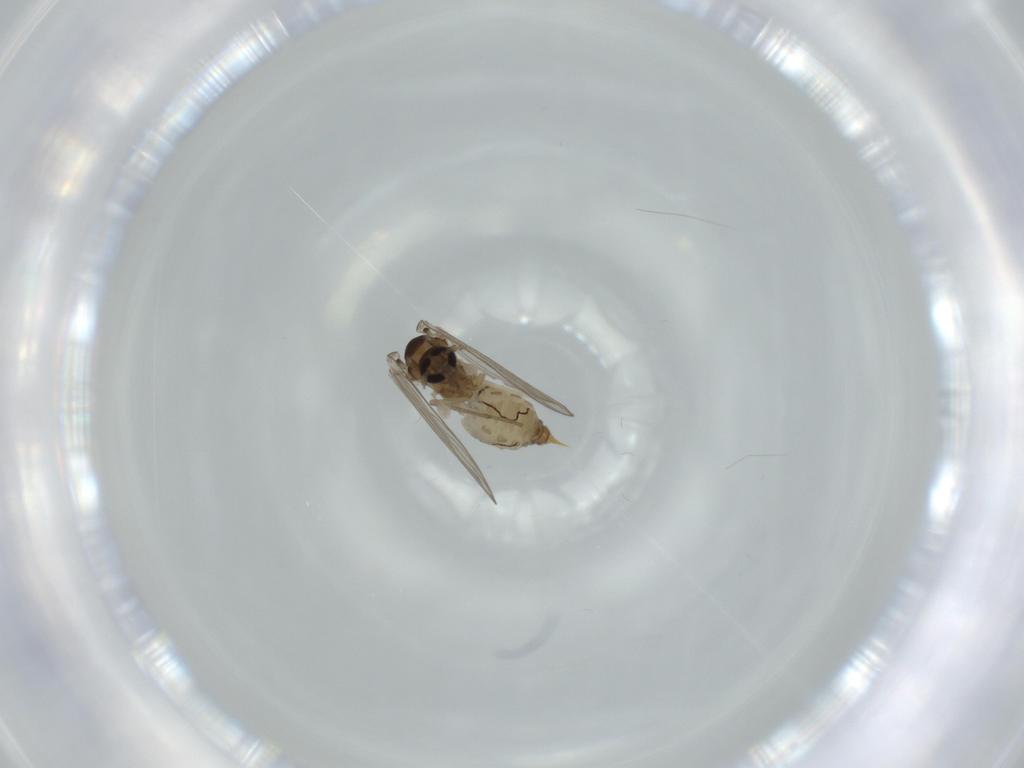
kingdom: Animalia
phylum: Arthropoda
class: Insecta
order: Diptera
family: Psychodidae
